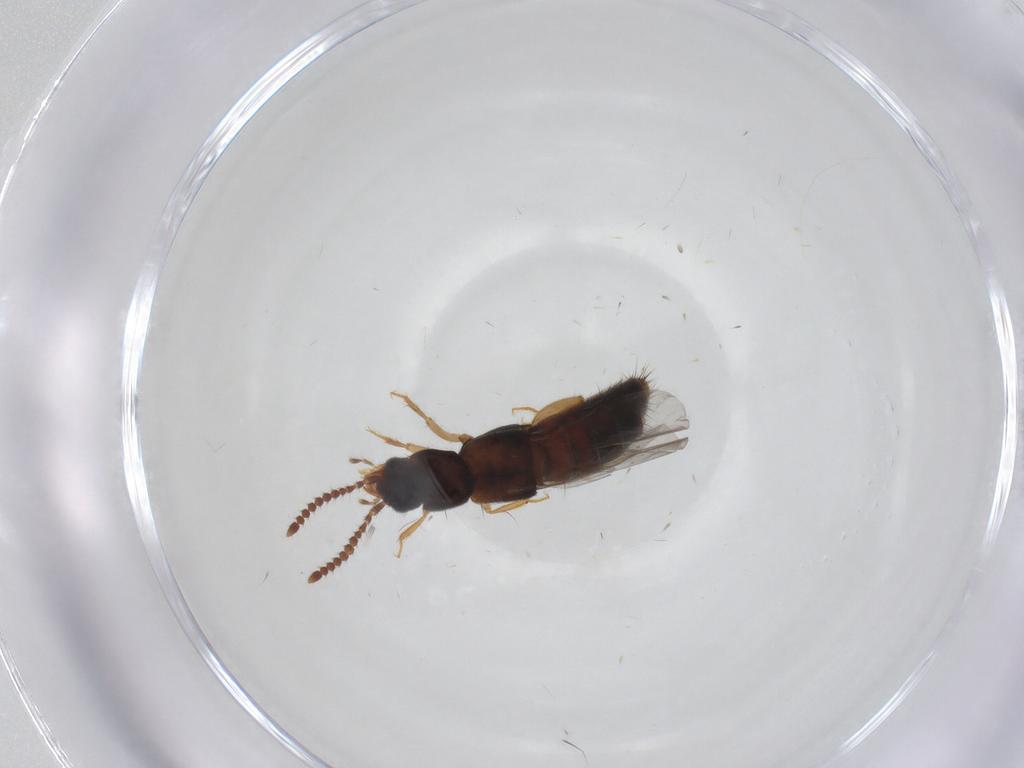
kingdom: Animalia
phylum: Arthropoda
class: Insecta
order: Coleoptera
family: Staphylinidae
